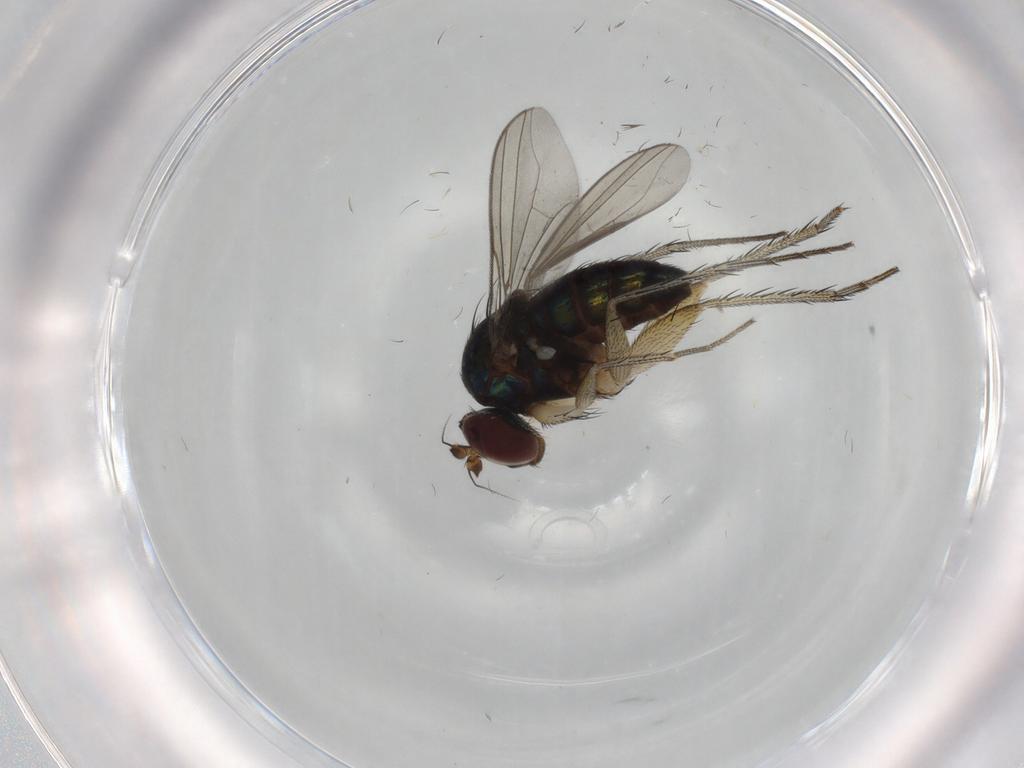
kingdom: Animalia
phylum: Arthropoda
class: Insecta
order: Diptera
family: Dolichopodidae
